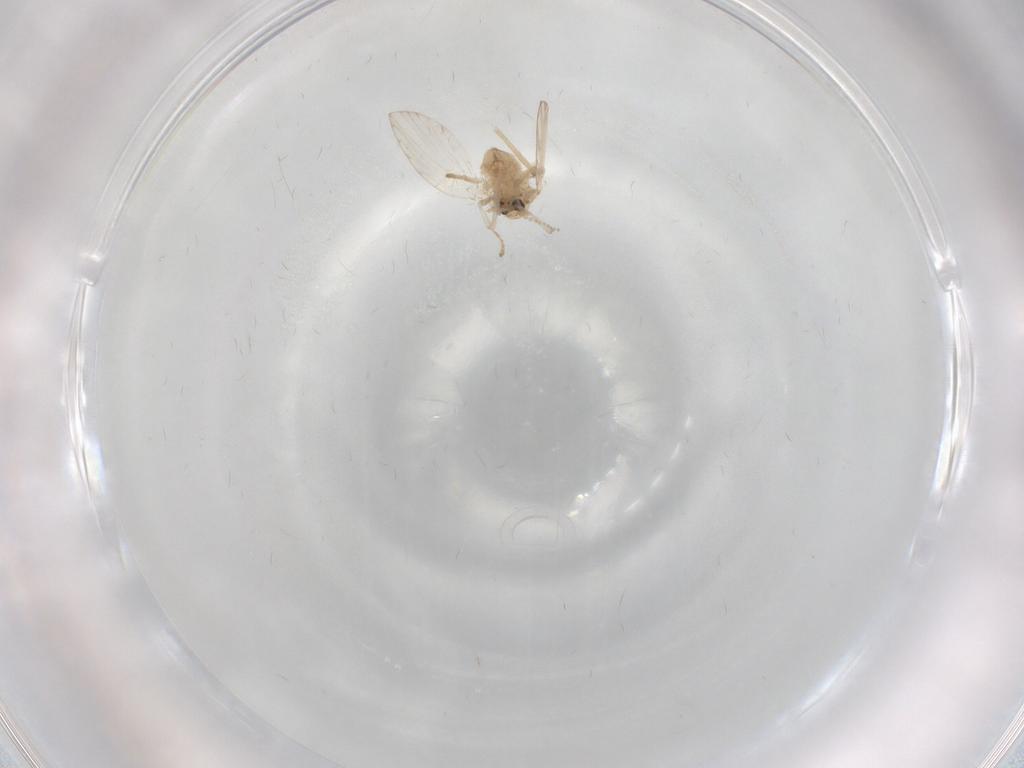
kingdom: Animalia
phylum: Arthropoda
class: Insecta
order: Diptera
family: Psychodidae
